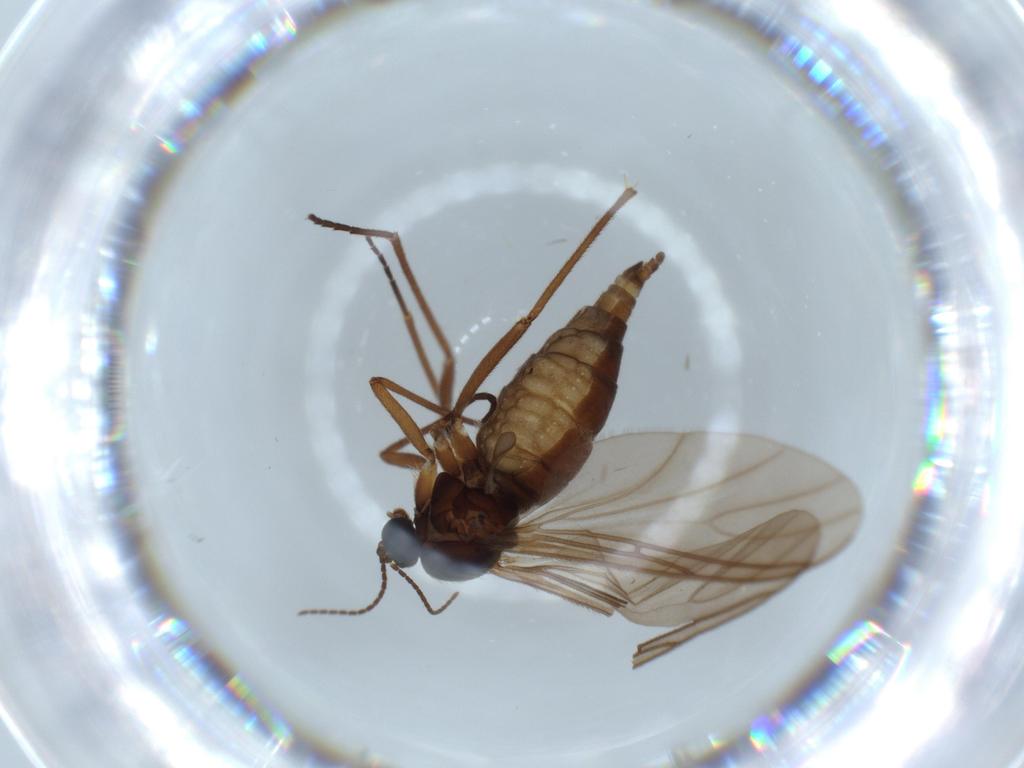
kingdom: Animalia
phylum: Arthropoda
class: Insecta
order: Diptera
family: Sciaridae
